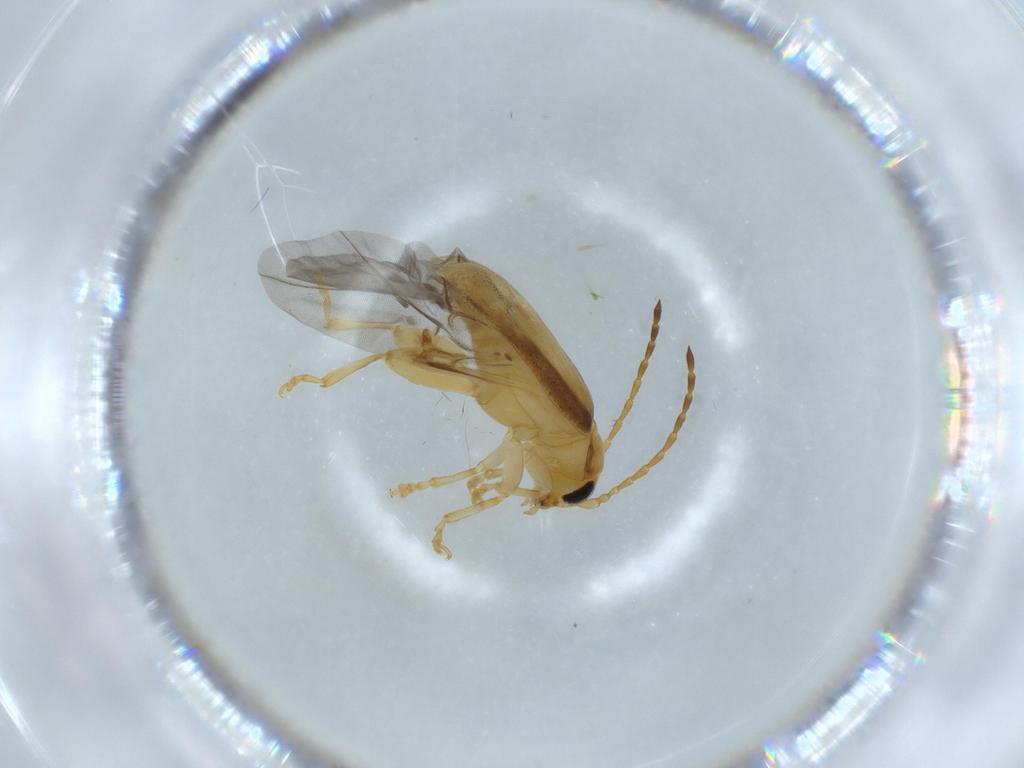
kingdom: Animalia
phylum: Arthropoda
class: Insecta
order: Coleoptera
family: Chrysomelidae
